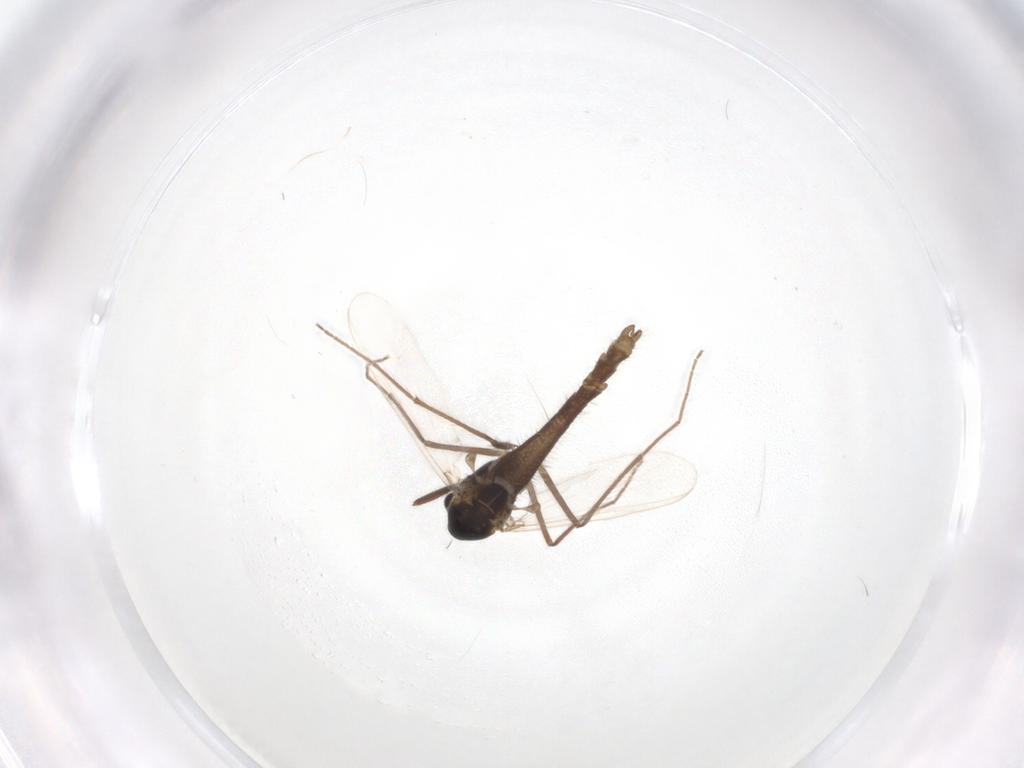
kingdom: Animalia
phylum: Arthropoda
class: Insecta
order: Diptera
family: Chironomidae
